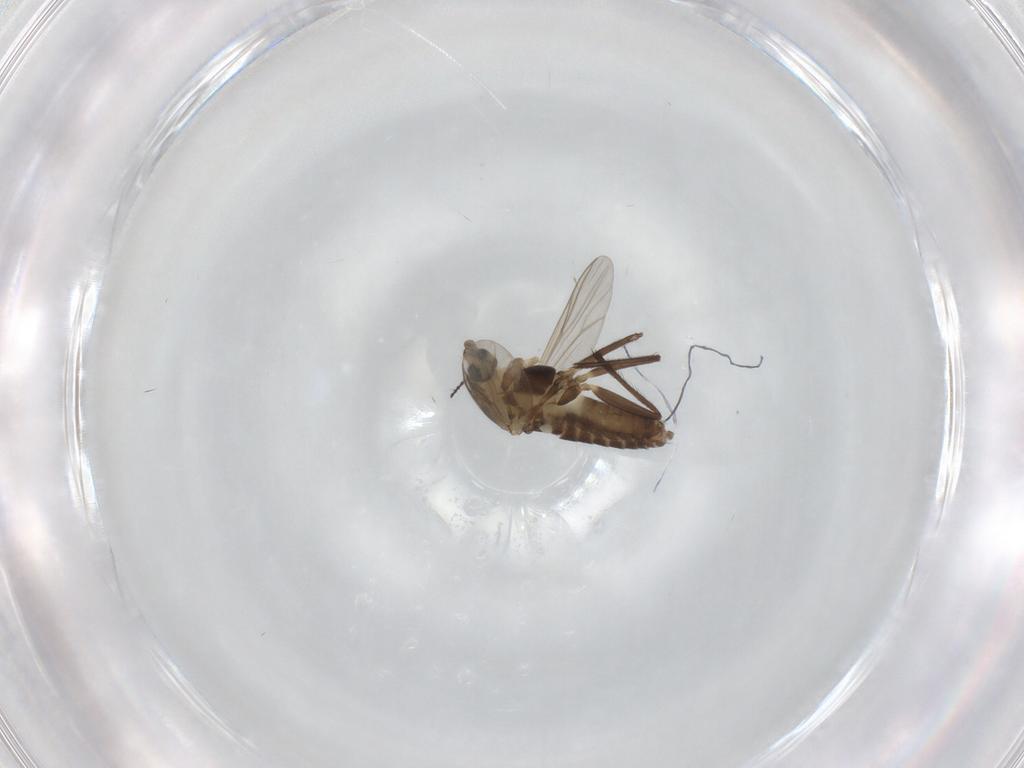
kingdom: Animalia
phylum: Arthropoda
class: Insecta
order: Diptera
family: Chironomidae
